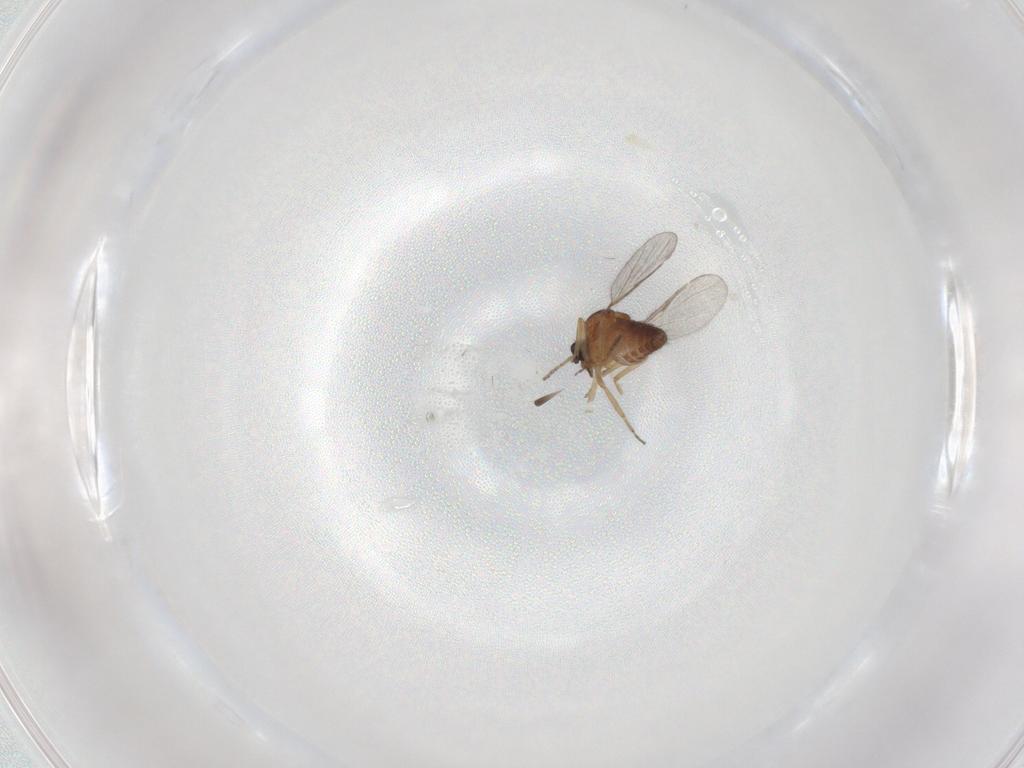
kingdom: Animalia
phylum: Arthropoda
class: Insecta
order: Diptera
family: Ceratopogonidae
